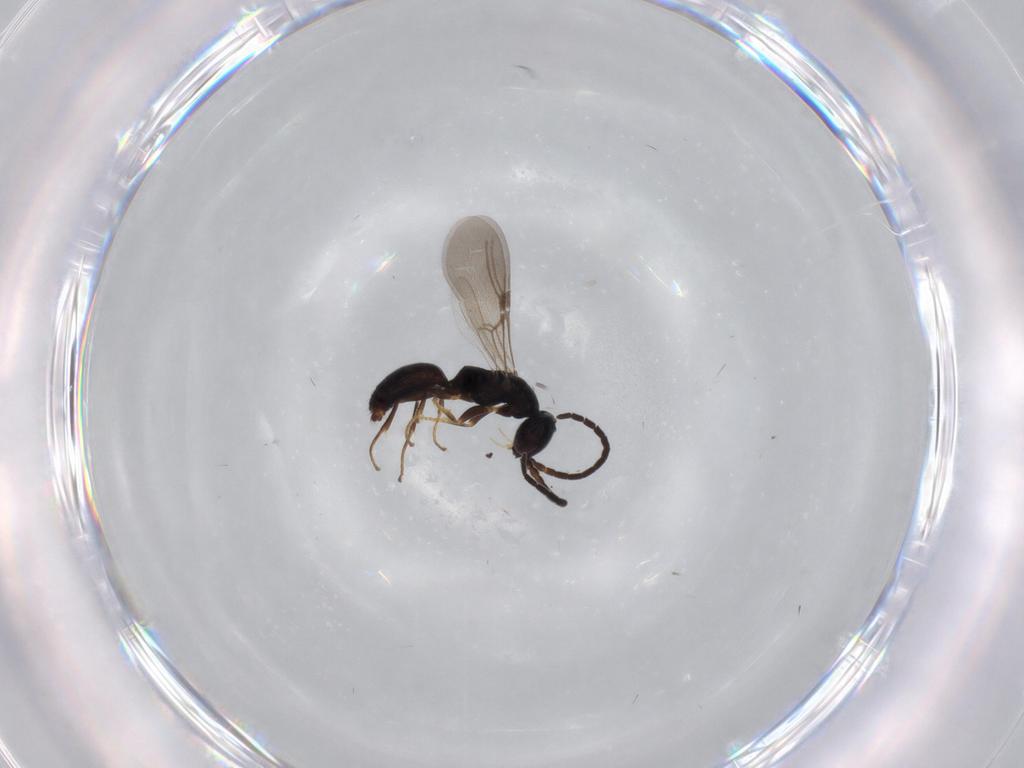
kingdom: Animalia
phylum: Arthropoda
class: Insecta
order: Hymenoptera
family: Bethylidae
